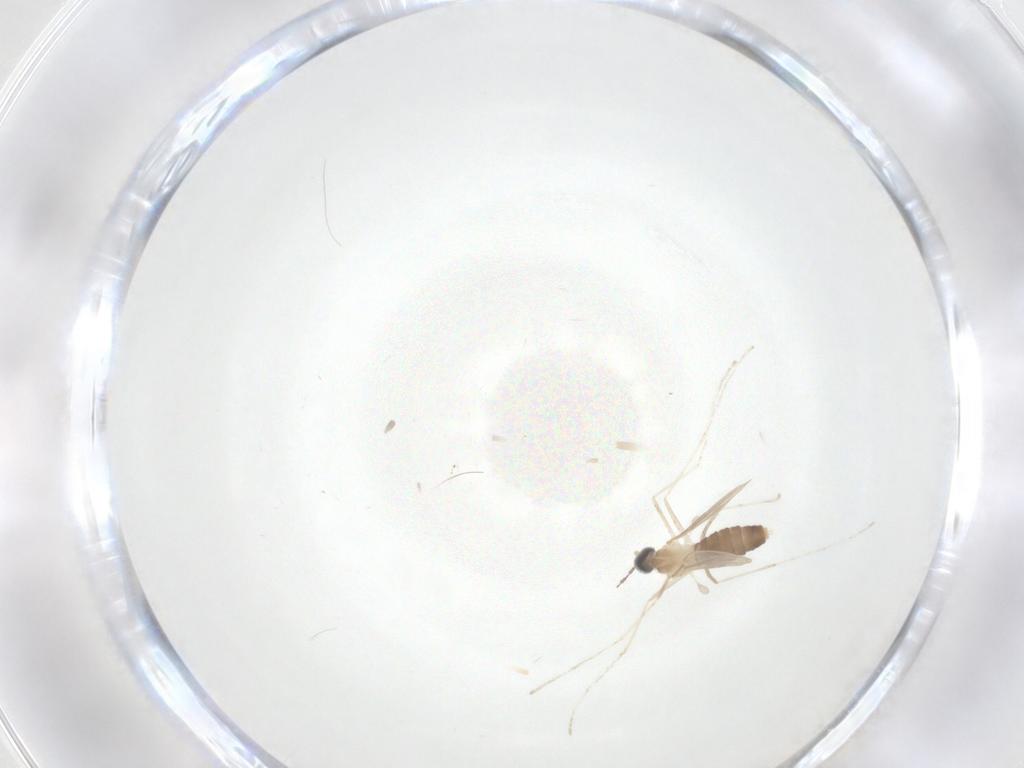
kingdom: Animalia
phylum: Arthropoda
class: Insecta
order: Diptera
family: Cecidomyiidae
